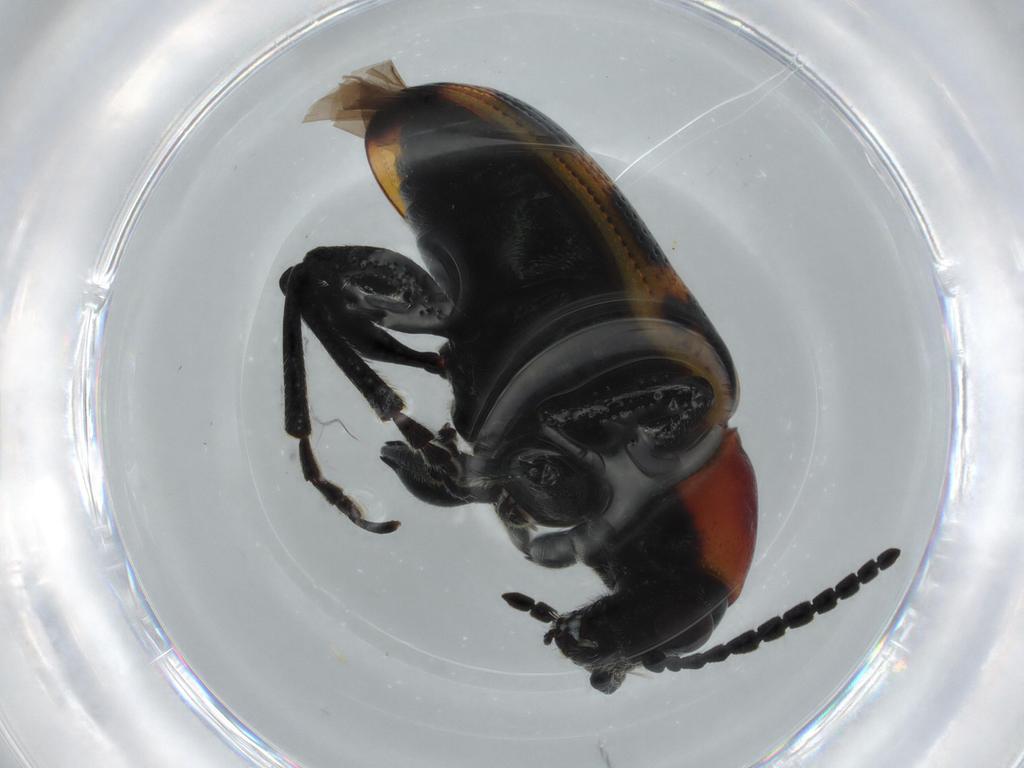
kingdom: Animalia
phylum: Arthropoda
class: Insecta
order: Coleoptera
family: Chrysomelidae
